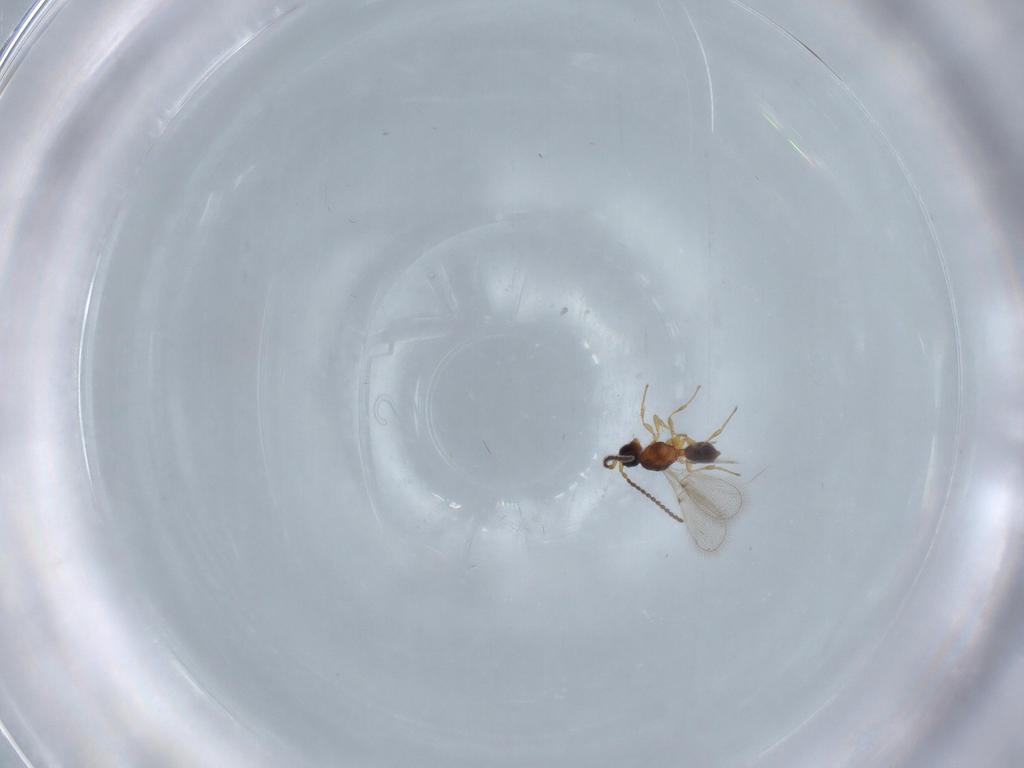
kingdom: Animalia
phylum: Arthropoda
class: Insecta
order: Hymenoptera
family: Diapriidae
